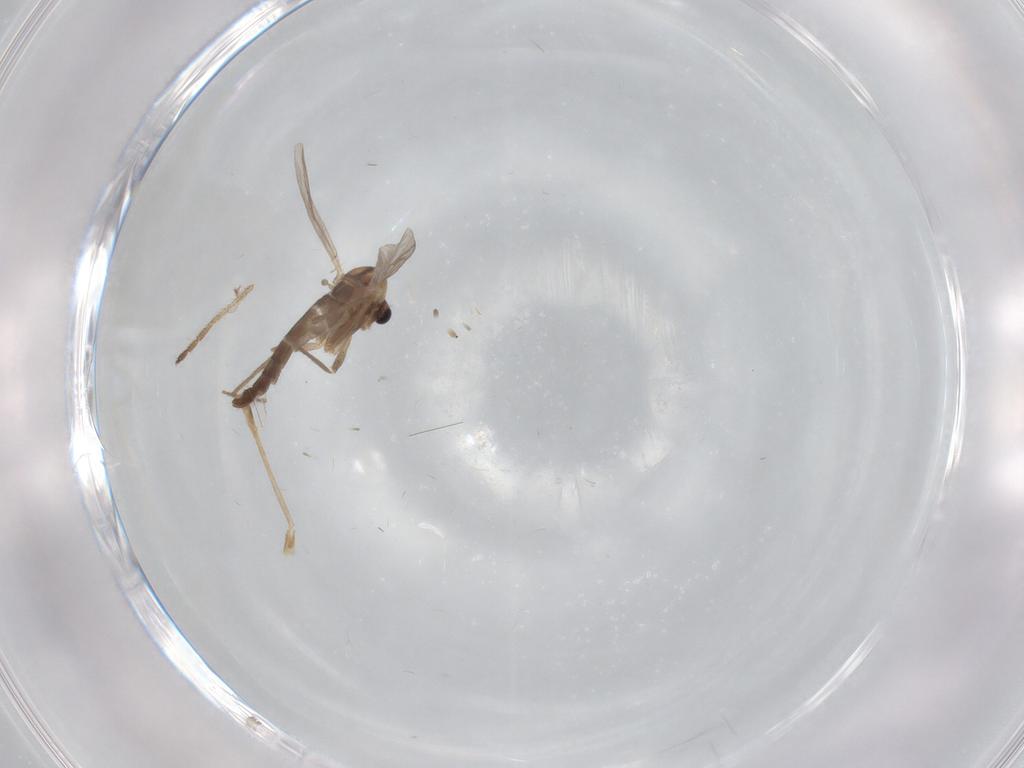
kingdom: Animalia
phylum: Arthropoda
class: Insecta
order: Diptera
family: Chironomidae
